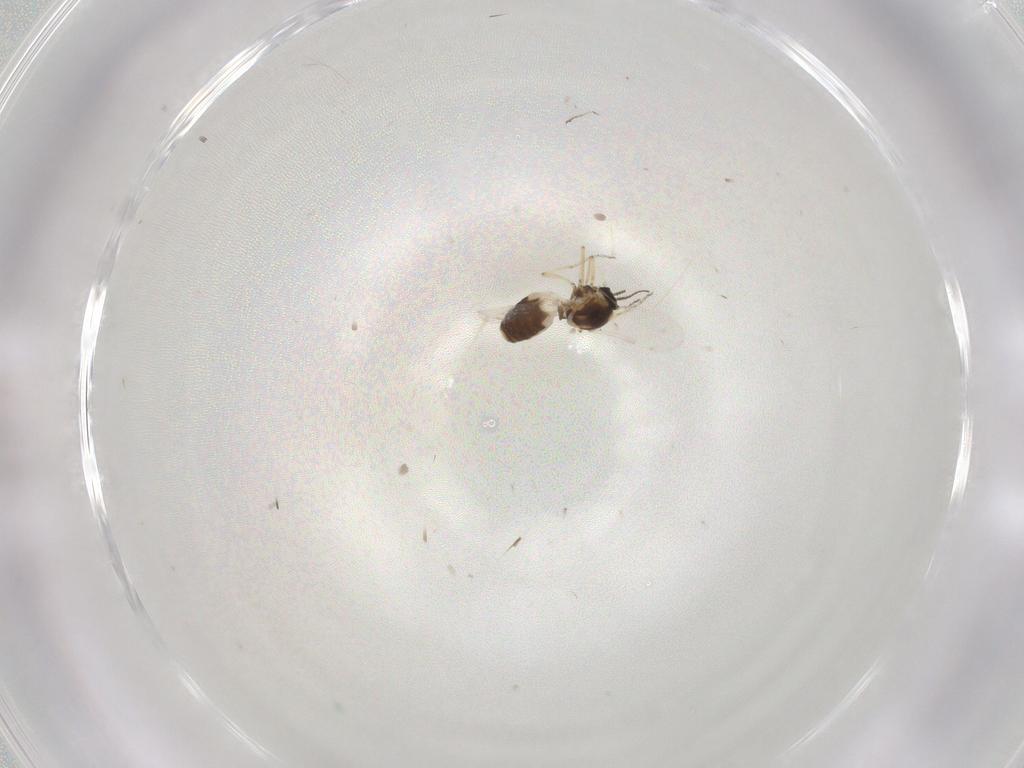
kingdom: Animalia
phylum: Arthropoda
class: Insecta
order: Diptera
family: Ceratopogonidae
